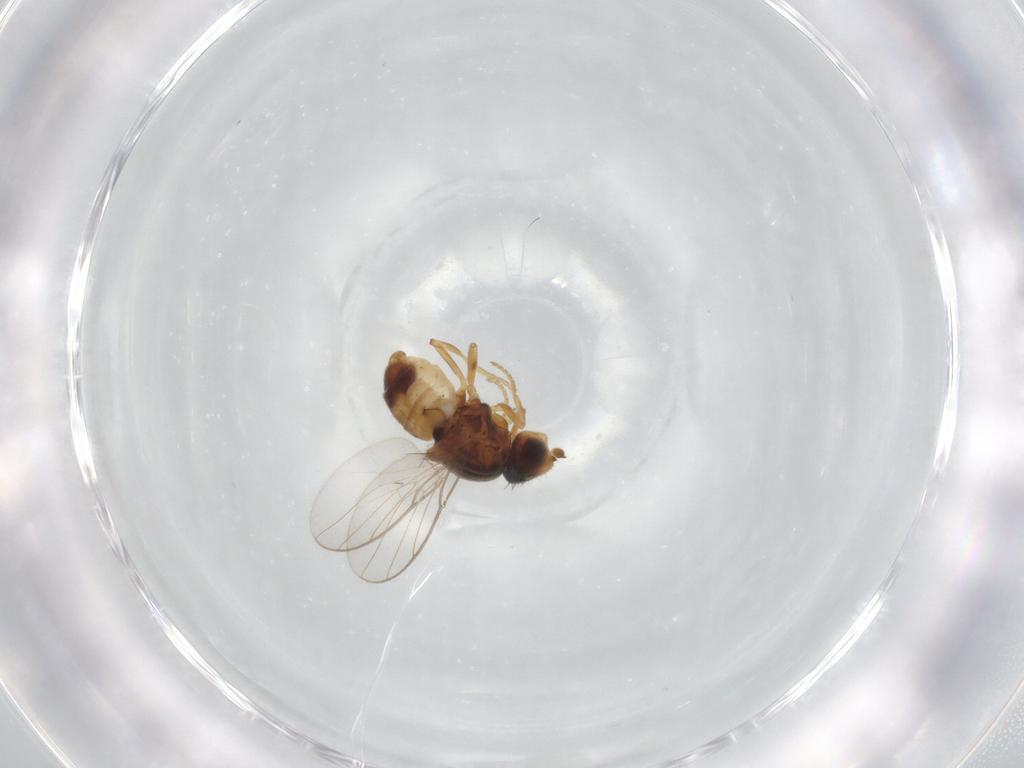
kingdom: Animalia
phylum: Arthropoda
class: Insecta
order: Diptera
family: Chloropidae
